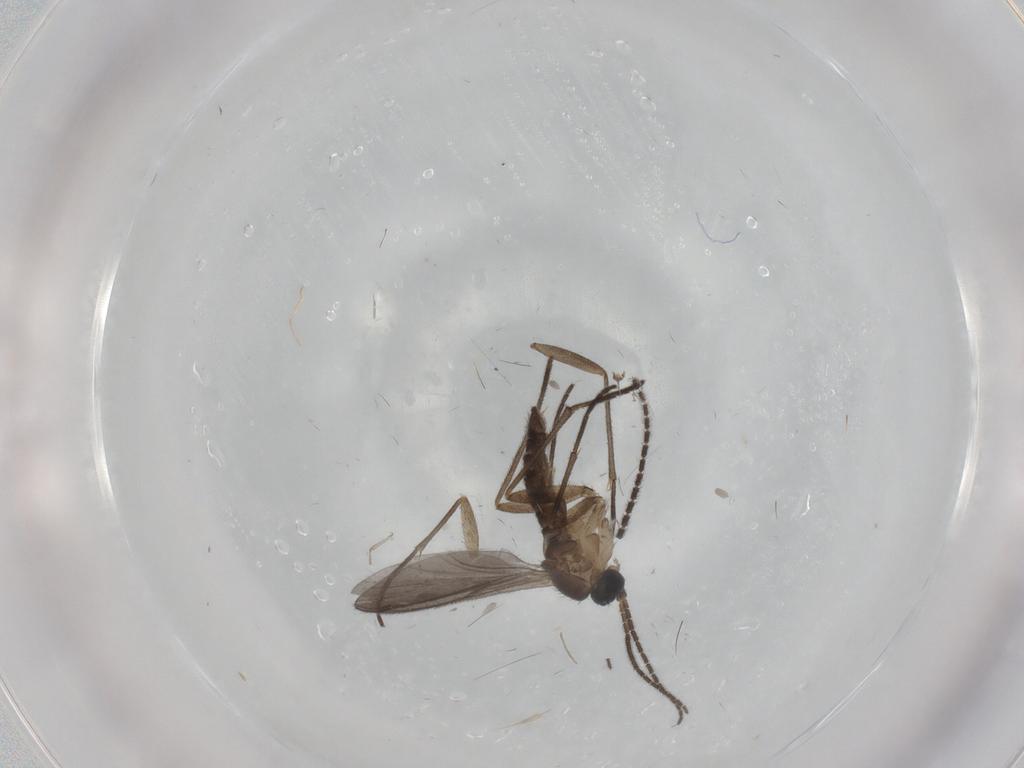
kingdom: Animalia
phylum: Arthropoda
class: Insecta
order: Diptera
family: Sciaridae
